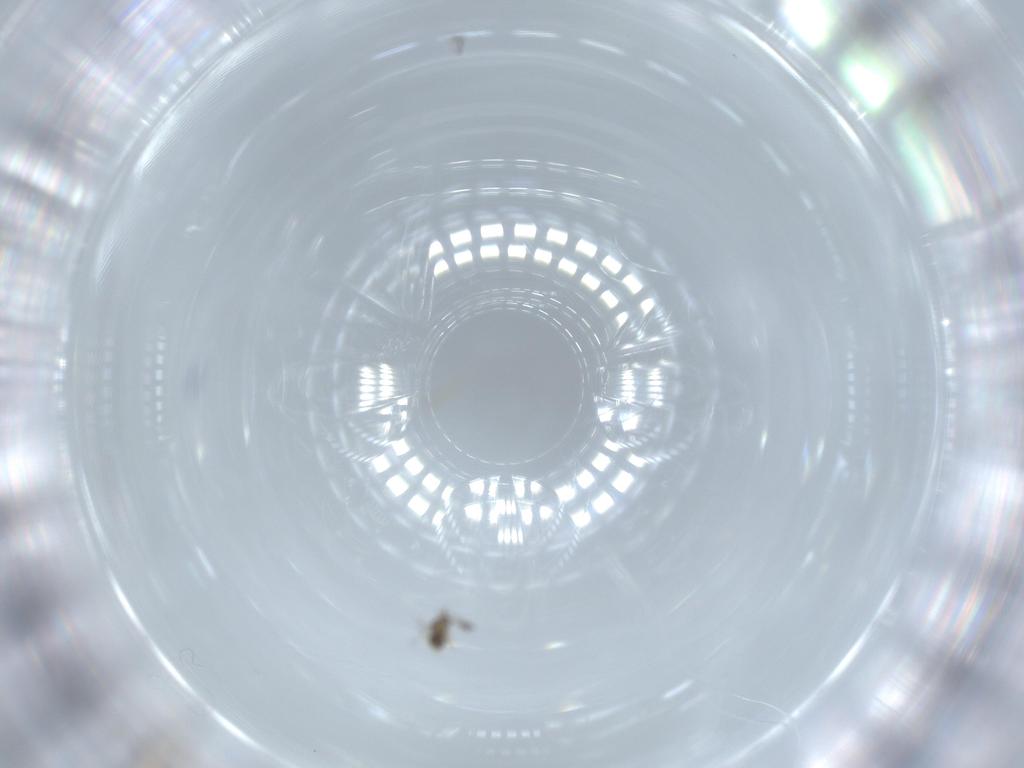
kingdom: Animalia
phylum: Arthropoda
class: Insecta
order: Hymenoptera
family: Mymaridae
